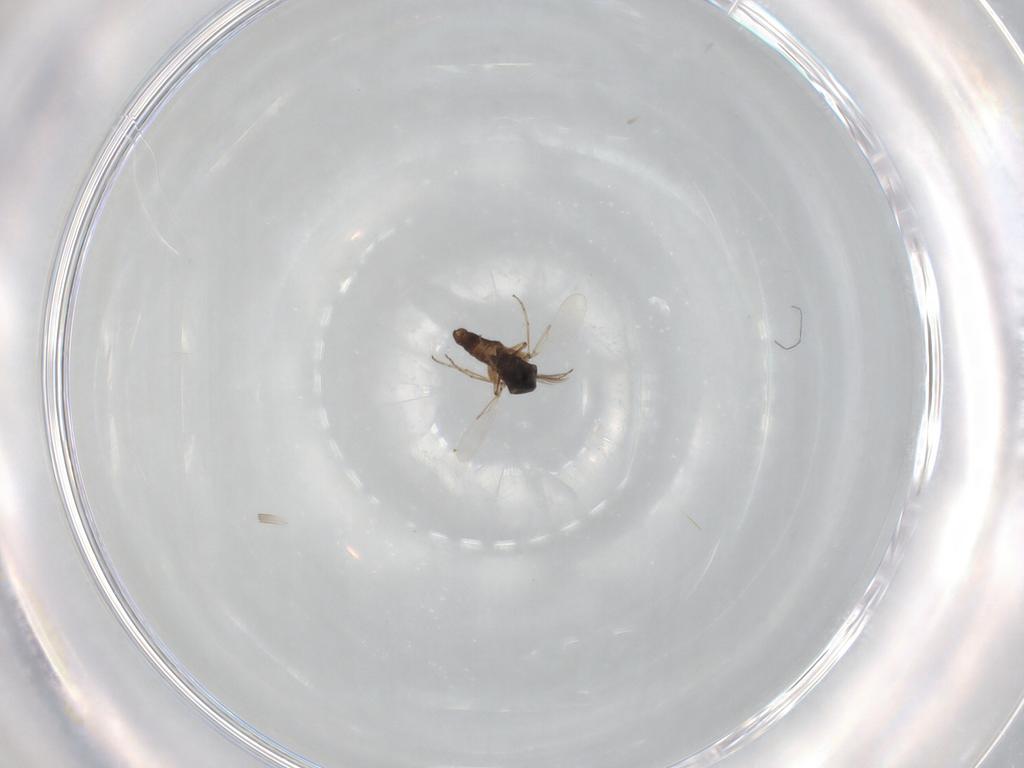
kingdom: Animalia
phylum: Arthropoda
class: Insecta
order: Diptera
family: Ceratopogonidae
